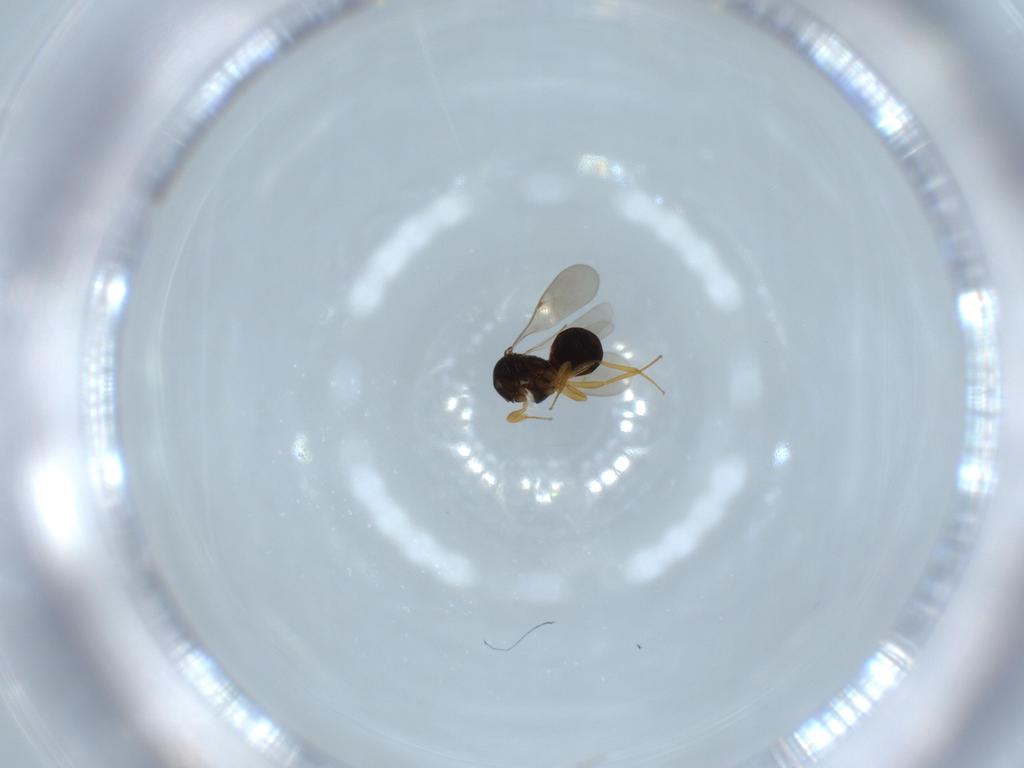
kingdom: Animalia
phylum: Arthropoda
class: Insecta
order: Hymenoptera
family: Scelionidae
